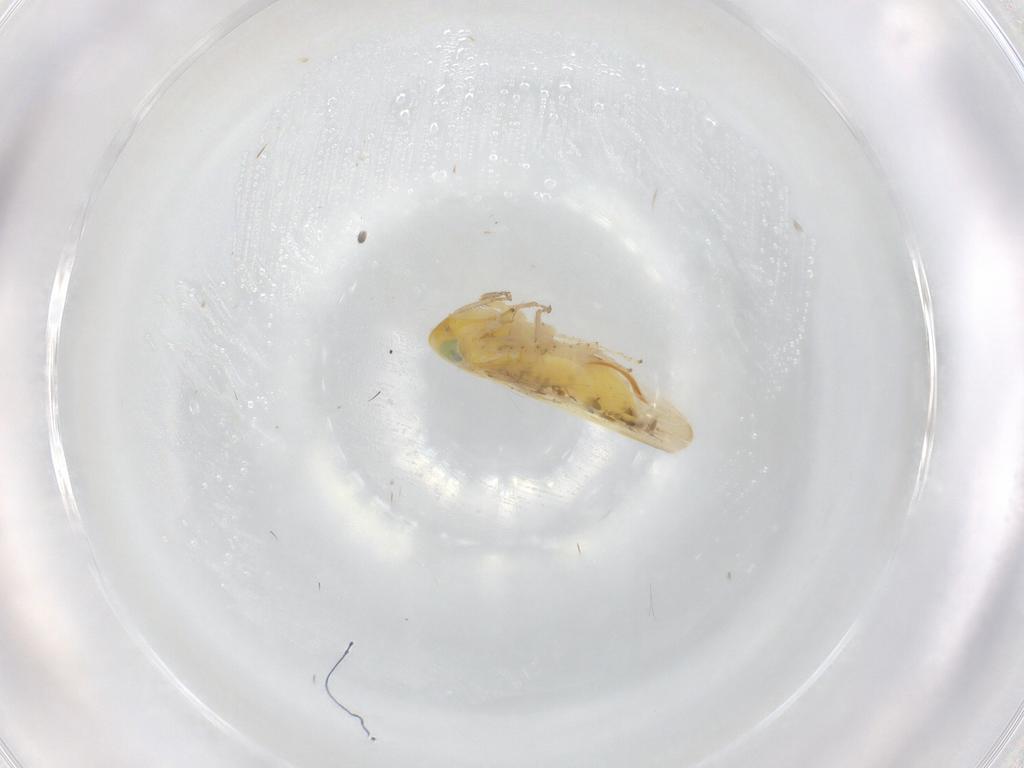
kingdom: Animalia
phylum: Arthropoda
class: Insecta
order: Hemiptera
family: Cicadellidae
